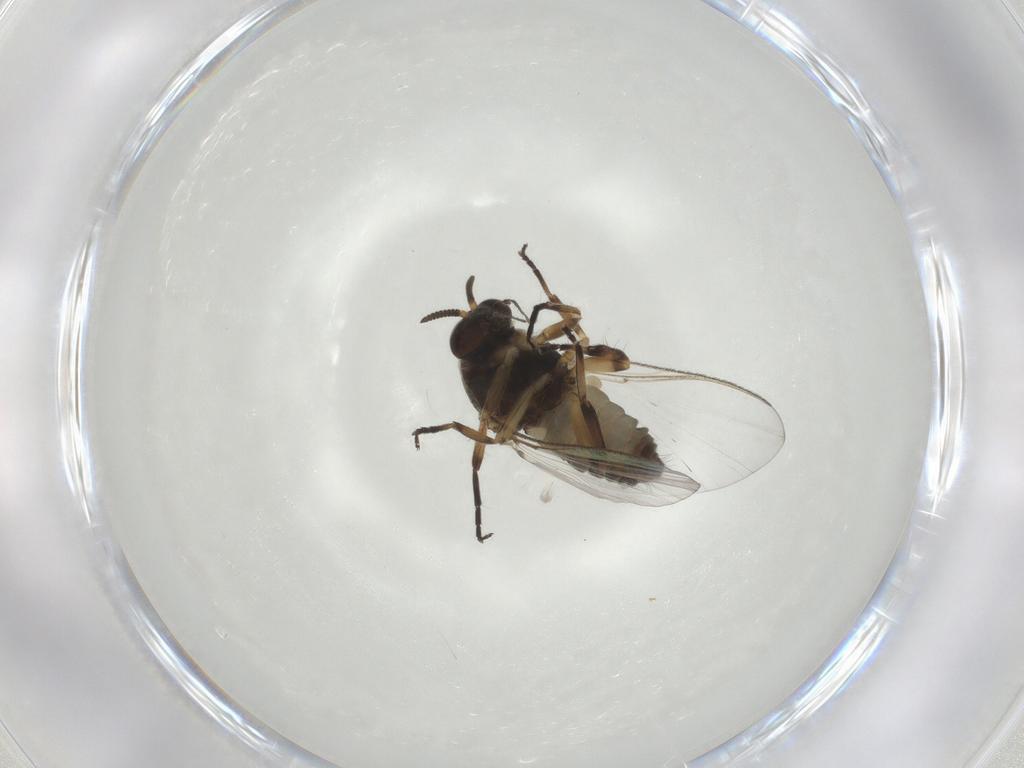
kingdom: Animalia
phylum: Arthropoda
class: Insecta
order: Diptera
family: Cecidomyiidae
